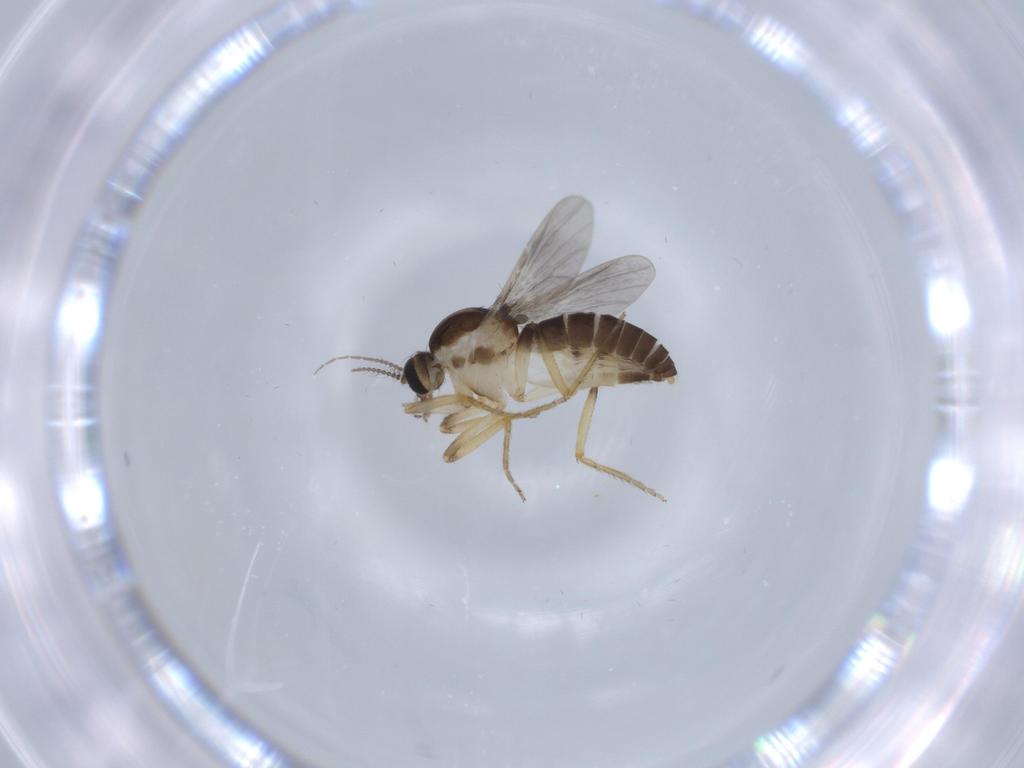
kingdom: Animalia
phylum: Arthropoda
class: Insecta
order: Diptera
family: Ceratopogonidae
